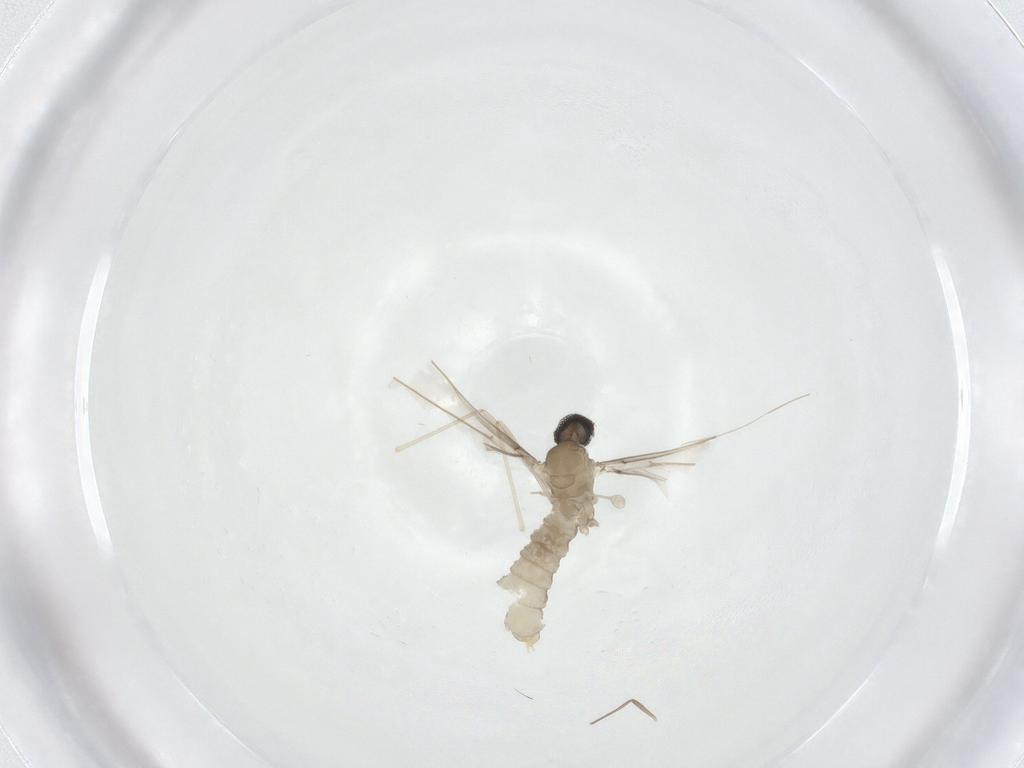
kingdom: Animalia
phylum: Arthropoda
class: Insecta
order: Diptera
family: Cecidomyiidae
